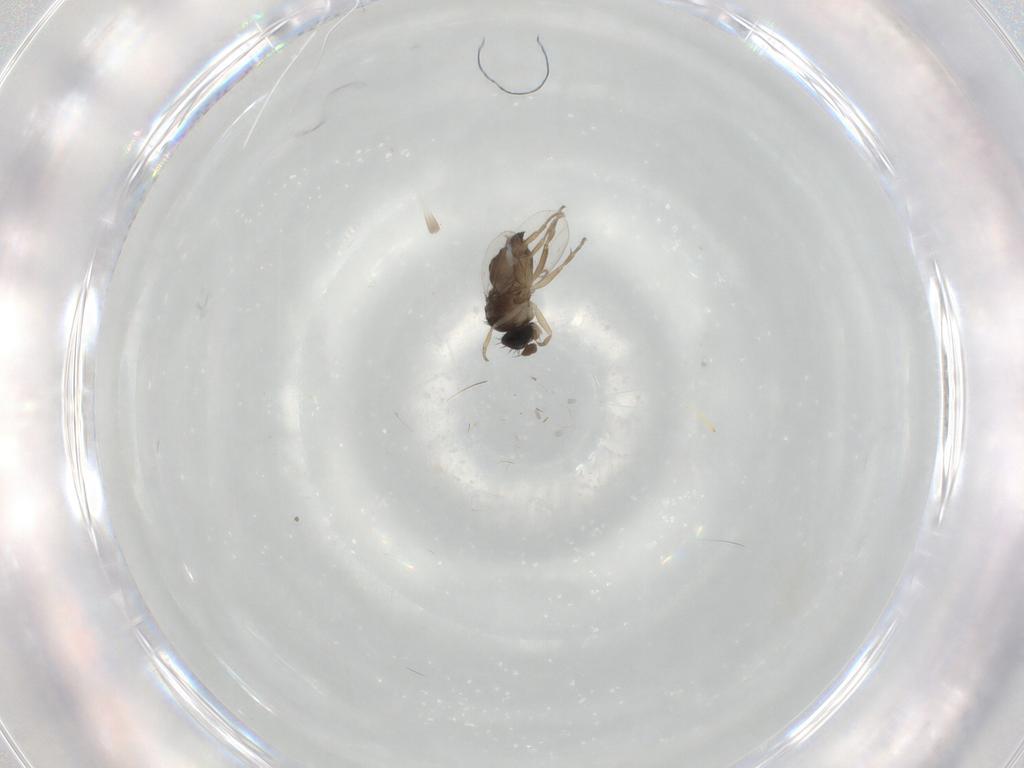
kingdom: Animalia
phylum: Arthropoda
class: Insecta
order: Diptera
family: Phoridae
